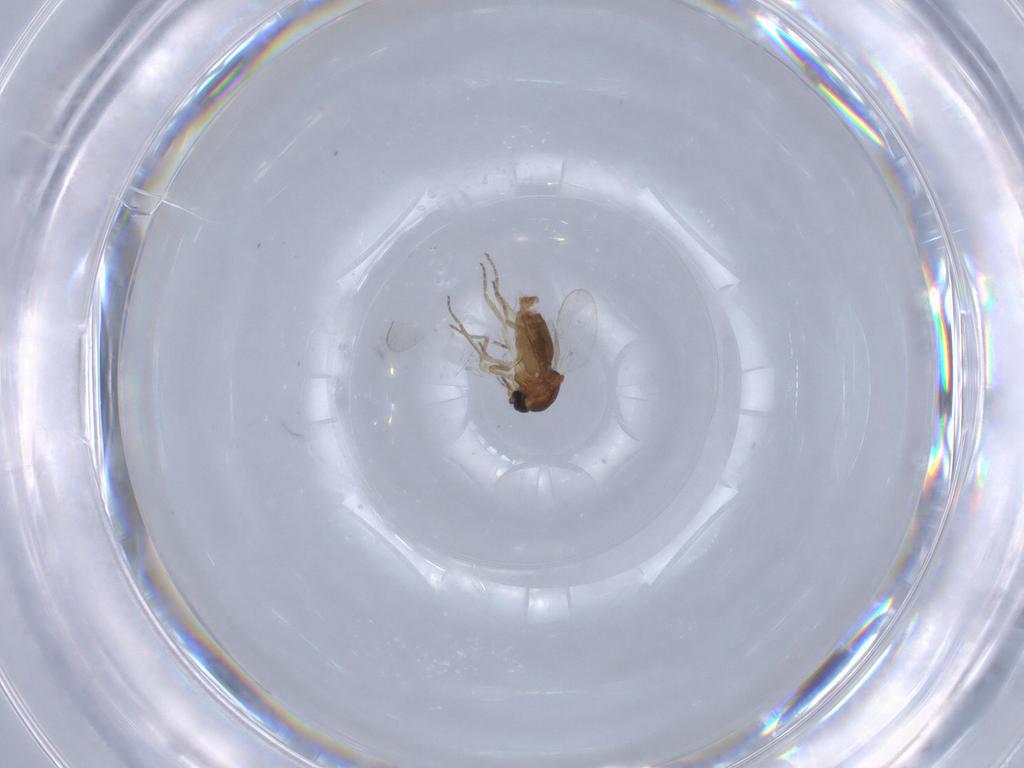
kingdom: Animalia
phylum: Arthropoda
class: Insecta
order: Diptera
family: Ceratopogonidae
